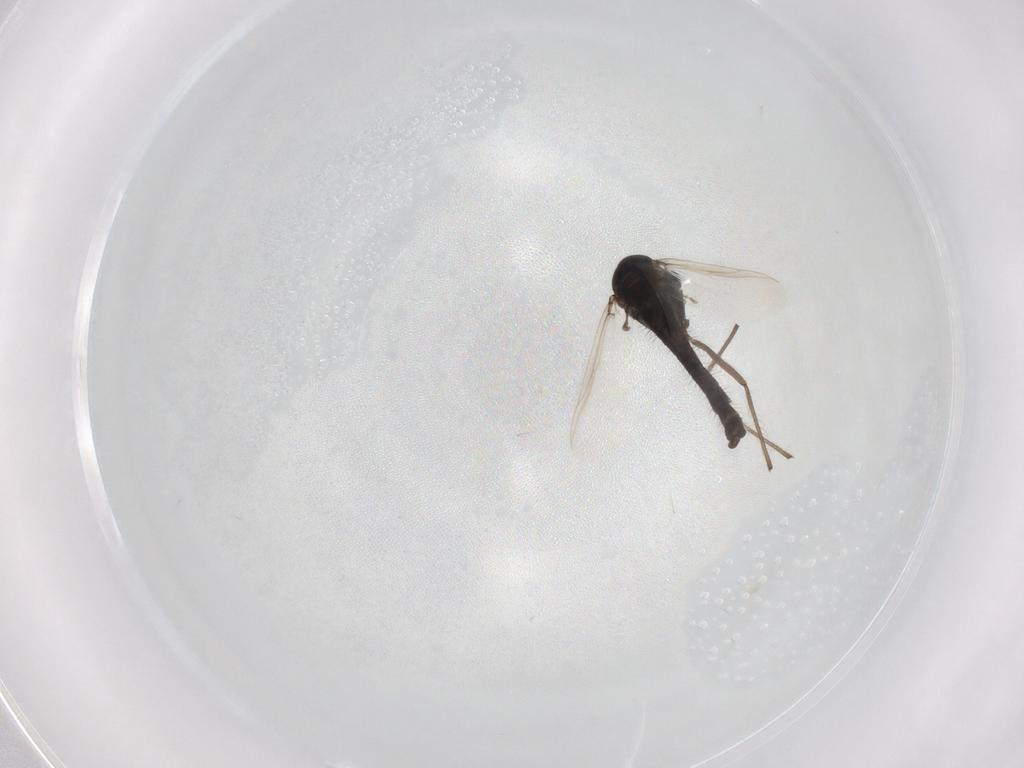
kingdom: Animalia
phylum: Arthropoda
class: Insecta
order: Diptera
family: Chironomidae
